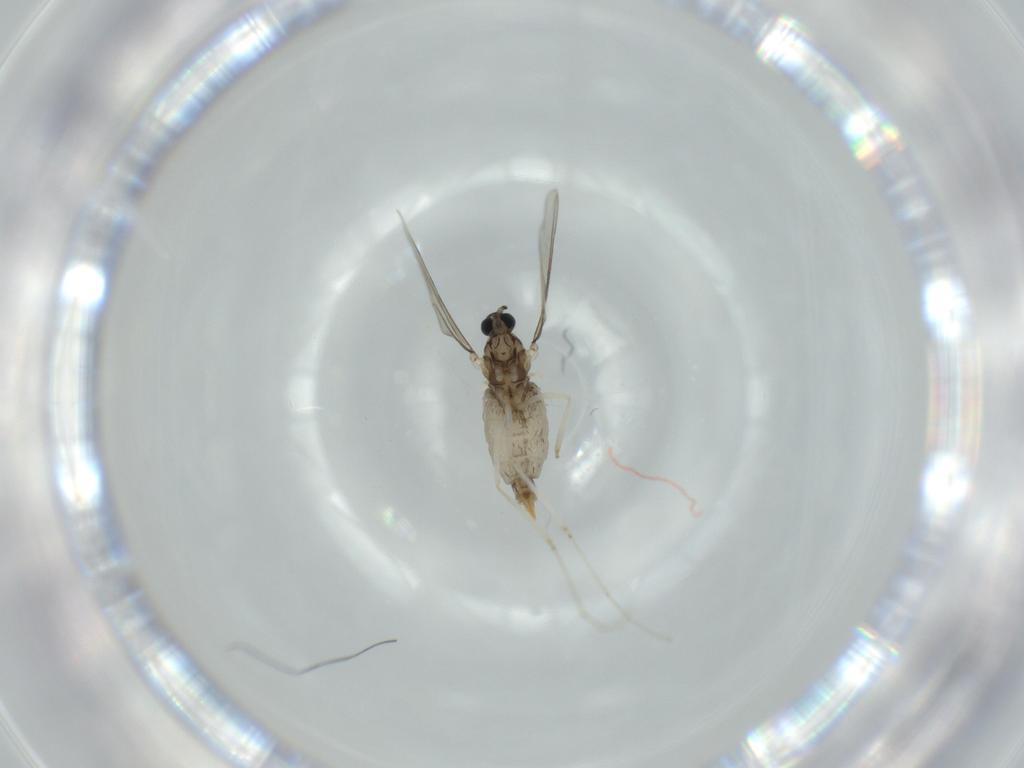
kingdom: Animalia
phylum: Arthropoda
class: Insecta
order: Diptera
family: Cecidomyiidae
